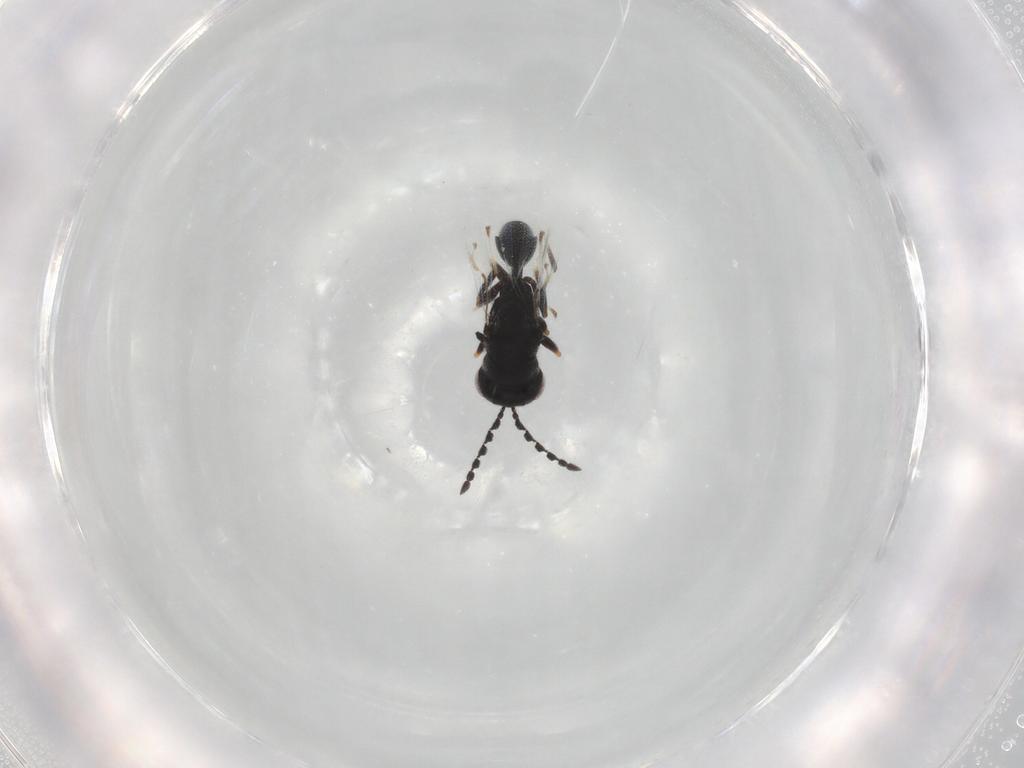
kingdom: Animalia
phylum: Arthropoda
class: Insecta
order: Hymenoptera
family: Eurytomidae
